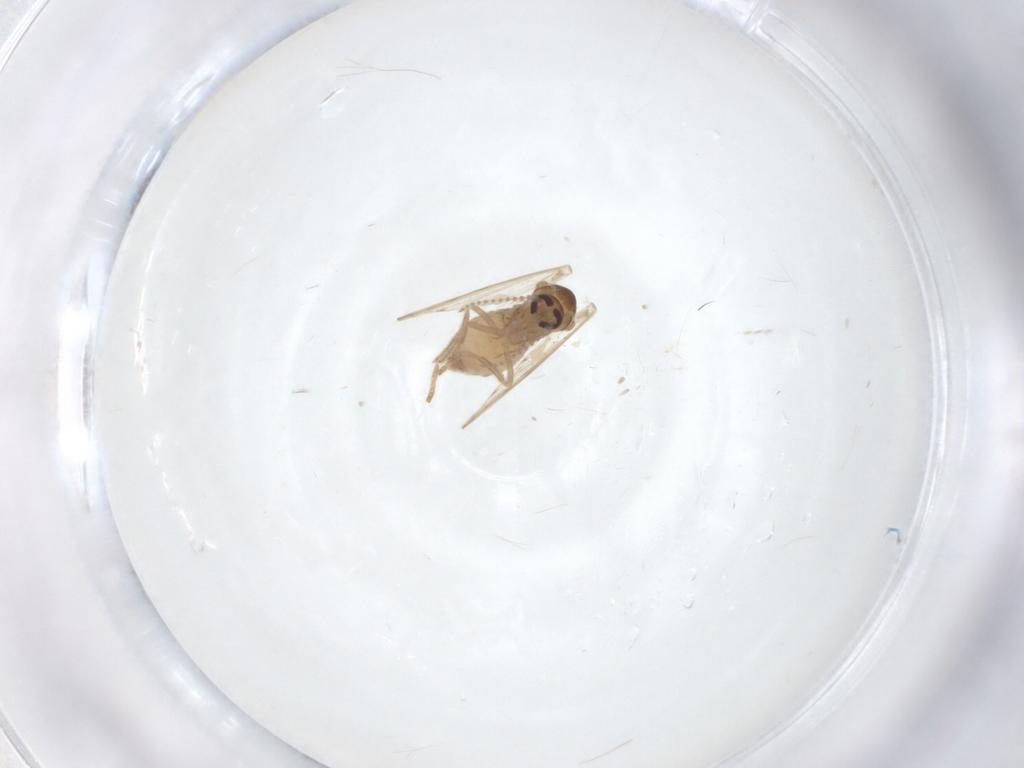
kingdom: Animalia
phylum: Arthropoda
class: Insecta
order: Diptera
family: Psychodidae
